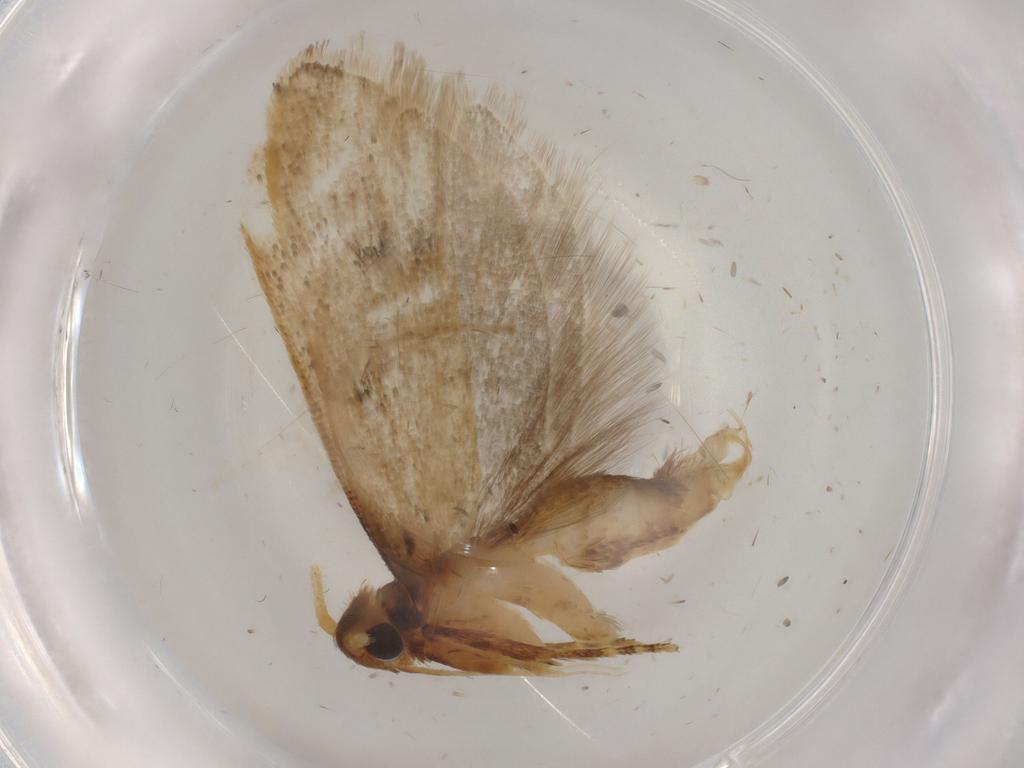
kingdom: Animalia
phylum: Arthropoda
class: Insecta
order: Lepidoptera
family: Lecithoceridae
